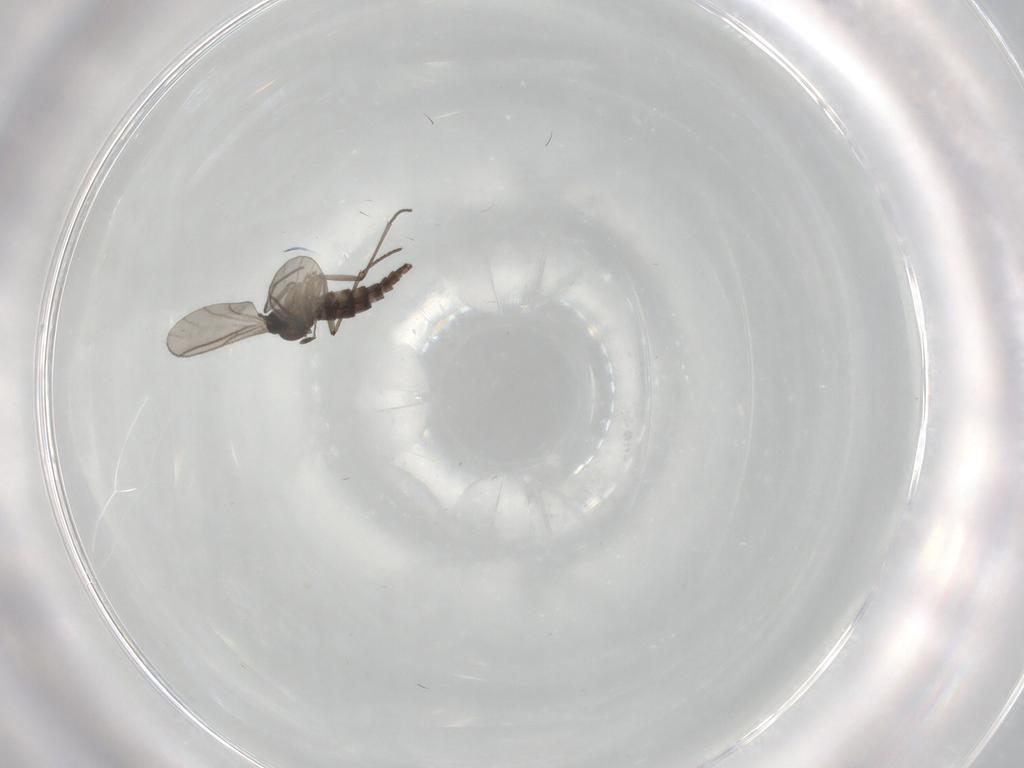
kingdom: Animalia
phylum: Arthropoda
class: Insecta
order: Diptera
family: Sciaridae
